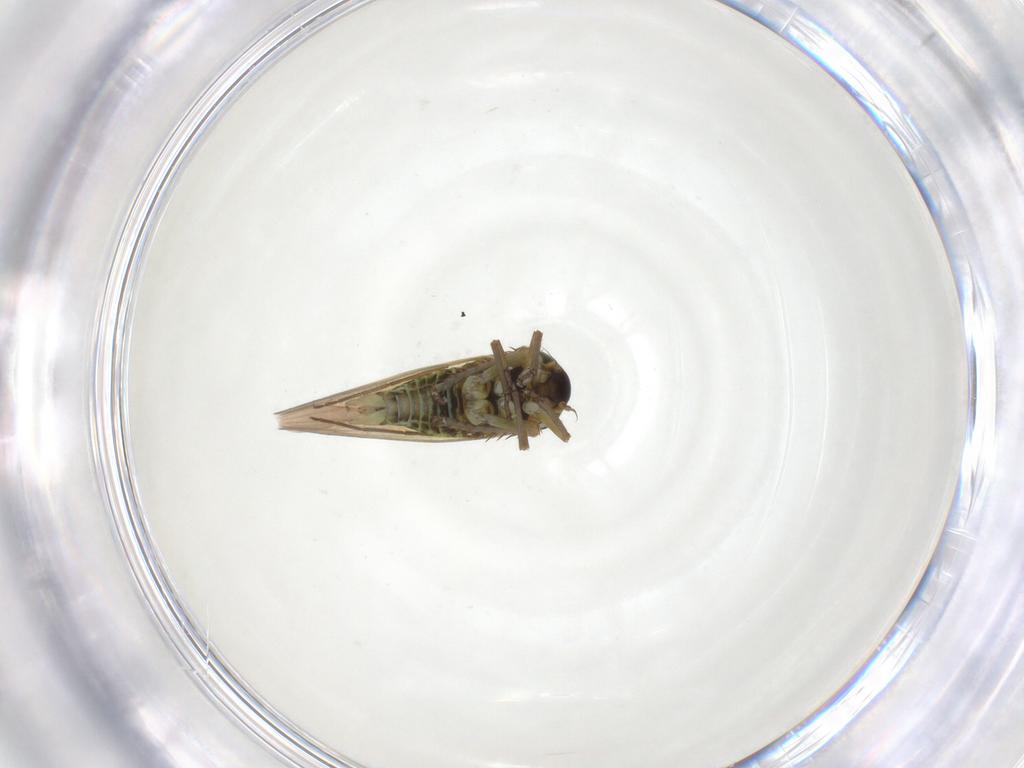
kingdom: Animalia
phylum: Arthropoda
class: Insecta
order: Hemiptera
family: Cicadellidae
